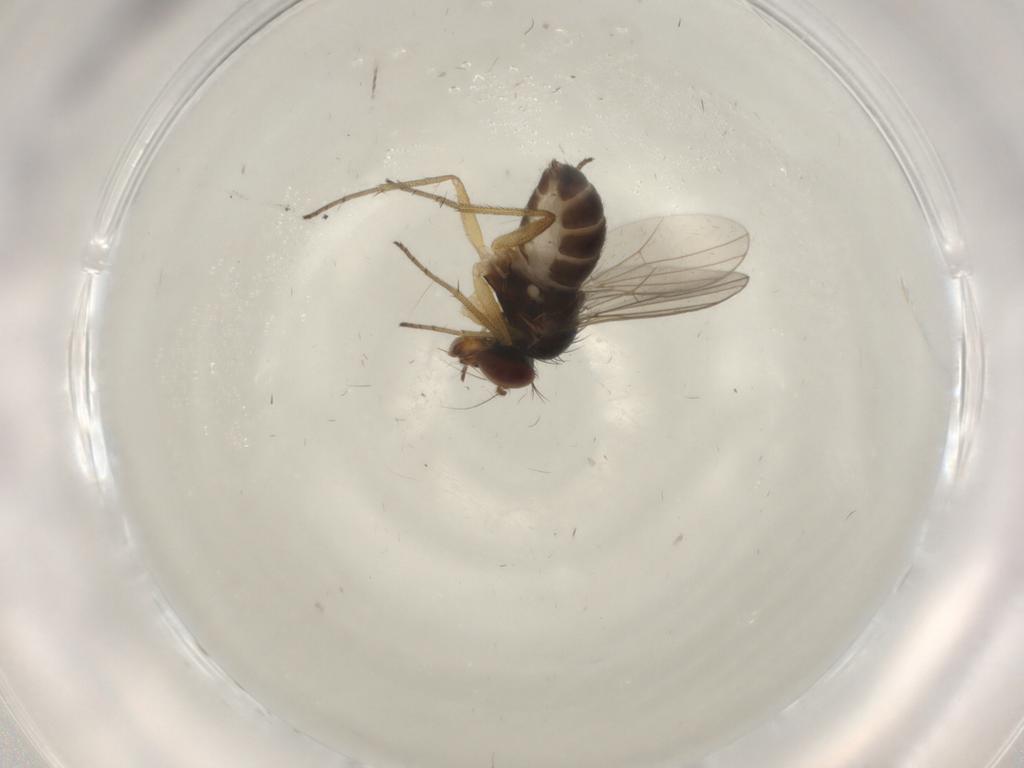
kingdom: Animalia
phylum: Arthropoda
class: Insecta
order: Diptera
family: Dolichopodidae
